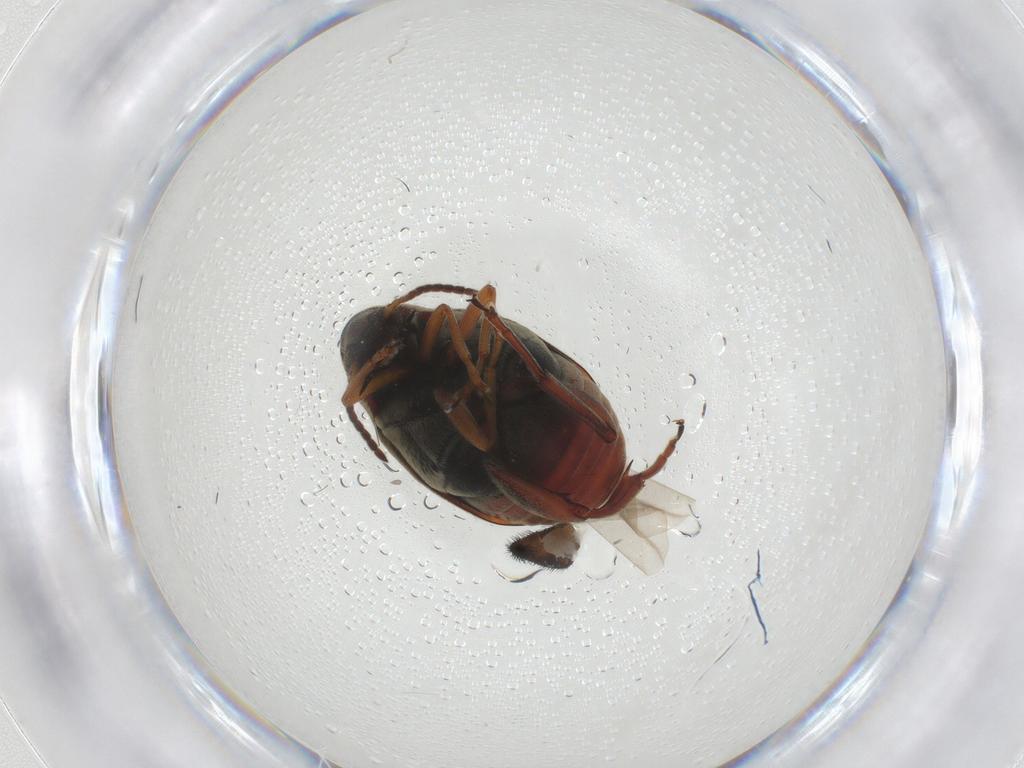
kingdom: Animalia
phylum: Arthropoda
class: Insecta
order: Coleoptera
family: Chrysomelidae
